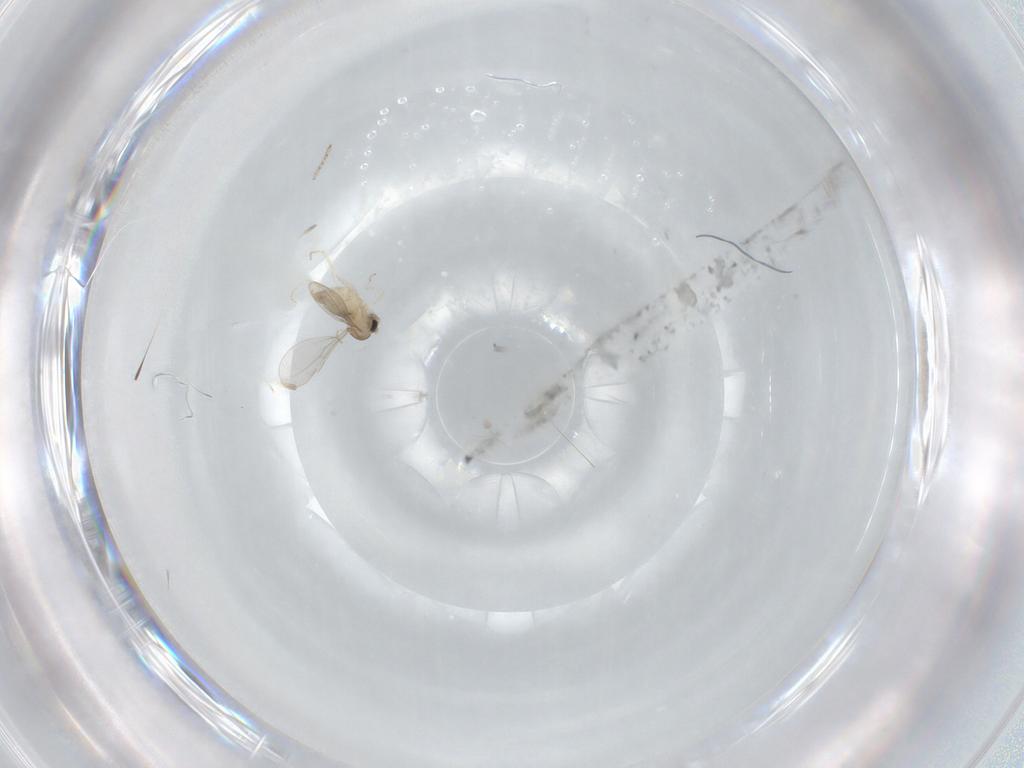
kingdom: Animalia
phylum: Arthropoda
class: Insecta
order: Diptera
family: Cecidomyiidae
